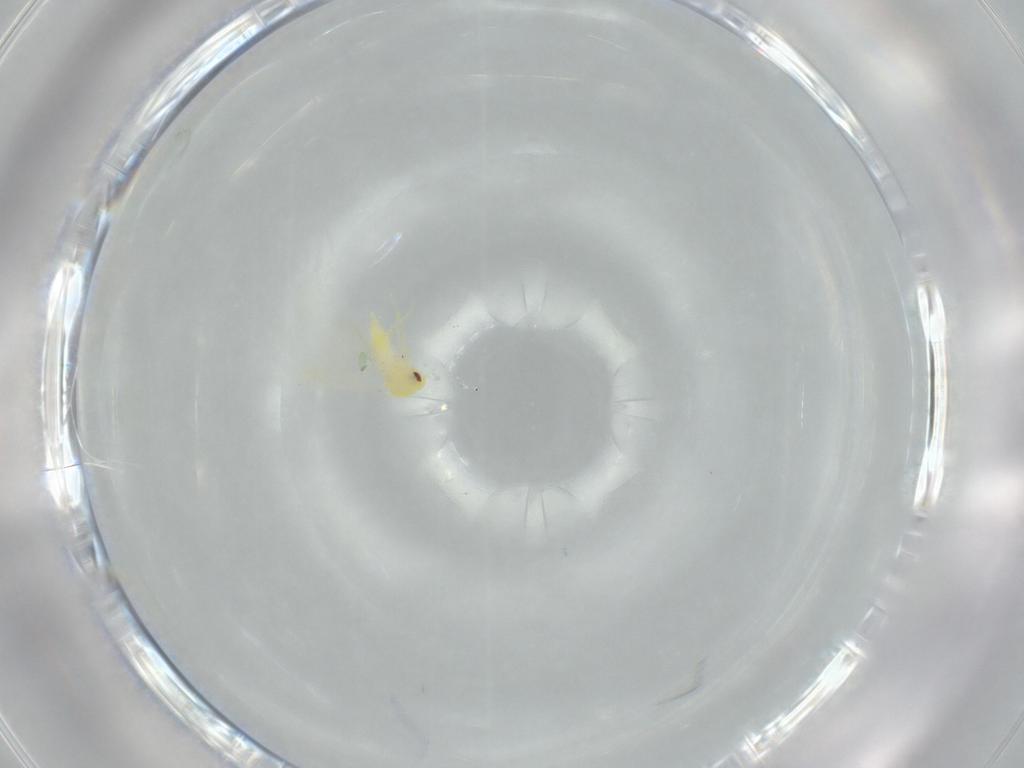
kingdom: Animalia
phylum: Arthropoda
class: Insecta
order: Hemiptera
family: Aleyrodidae
